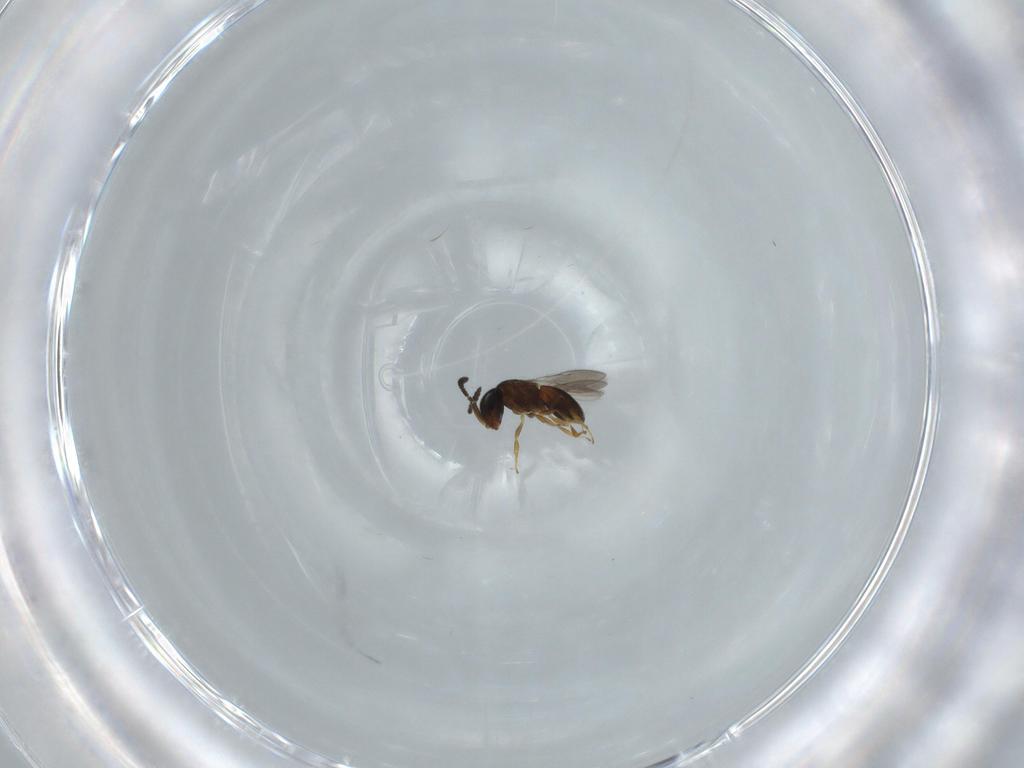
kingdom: Animalia
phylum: Arthropoda
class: Insecta
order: Hymenoptera
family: Scelionidae
